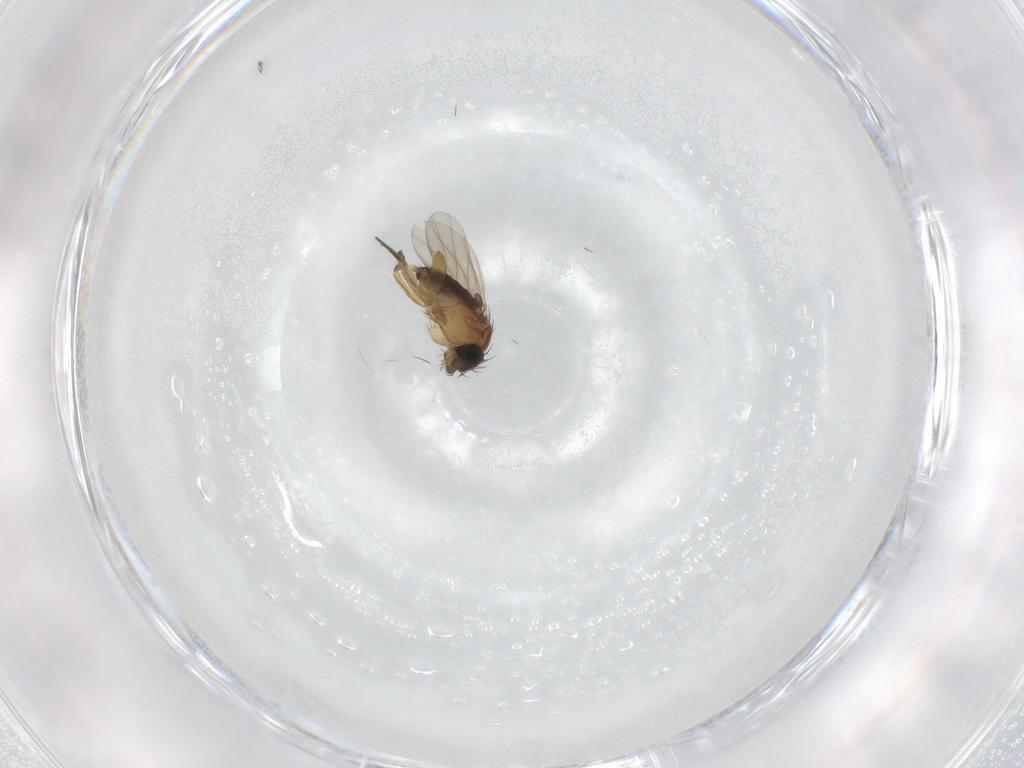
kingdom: Animalia
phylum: Arthropoda
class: Insecta
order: Diptera
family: Phoridae
